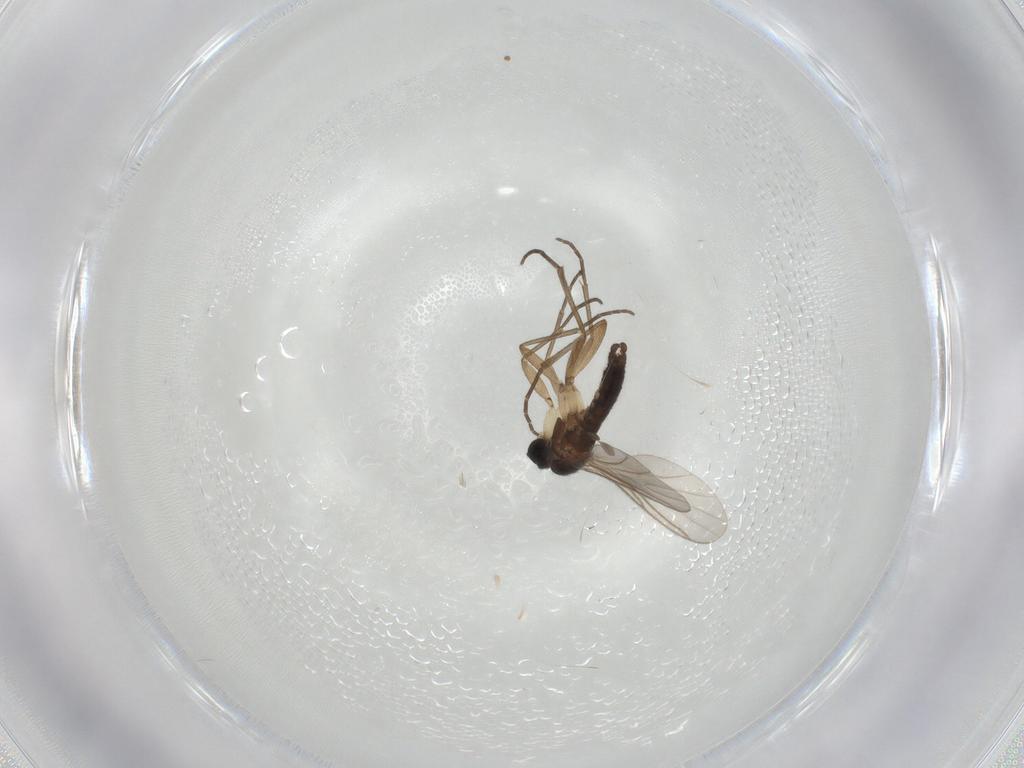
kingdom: Animalia
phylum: Arthropoda
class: Insecta
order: Diptera
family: Sciaridae
